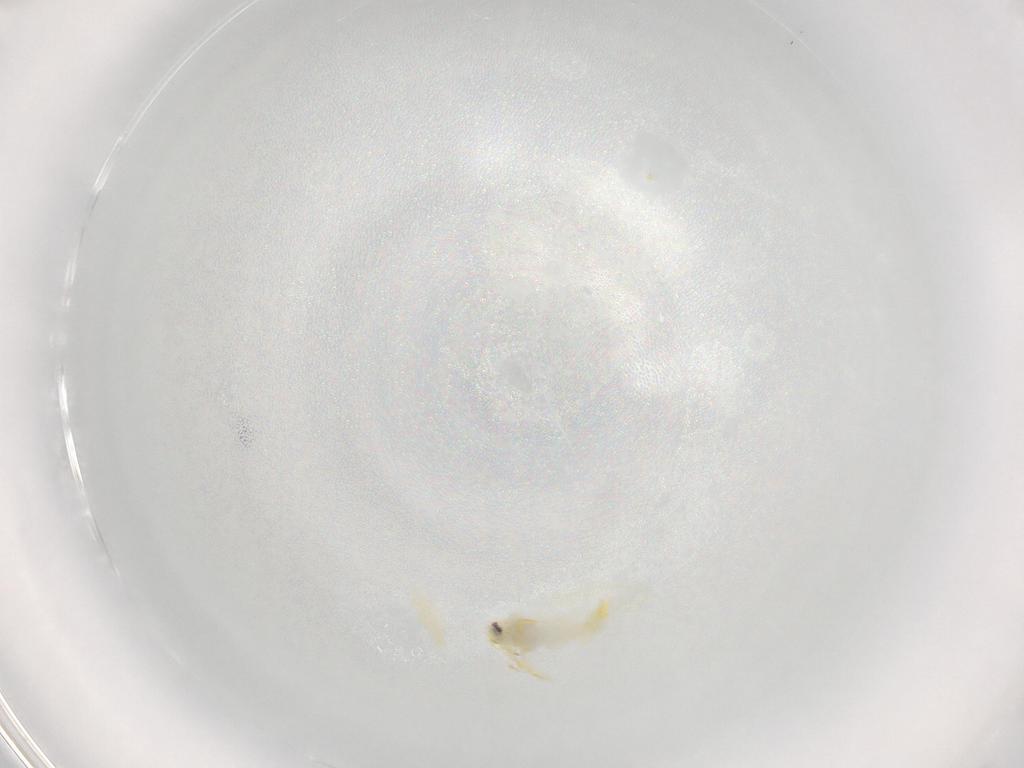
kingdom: Animalia
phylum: Arthropoda
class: Insecta
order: Hemiptera
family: Aleyrodidae
